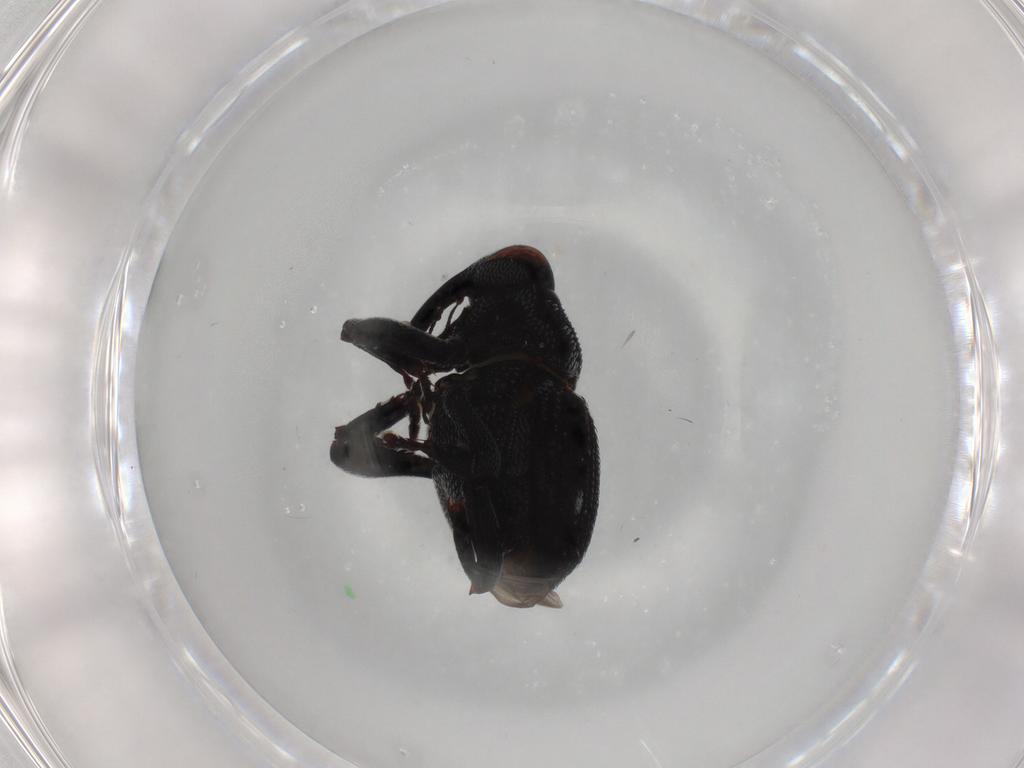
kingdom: Animalia
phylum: Arthropoda
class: Insecta
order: Coleoptera
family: Curculionidae
